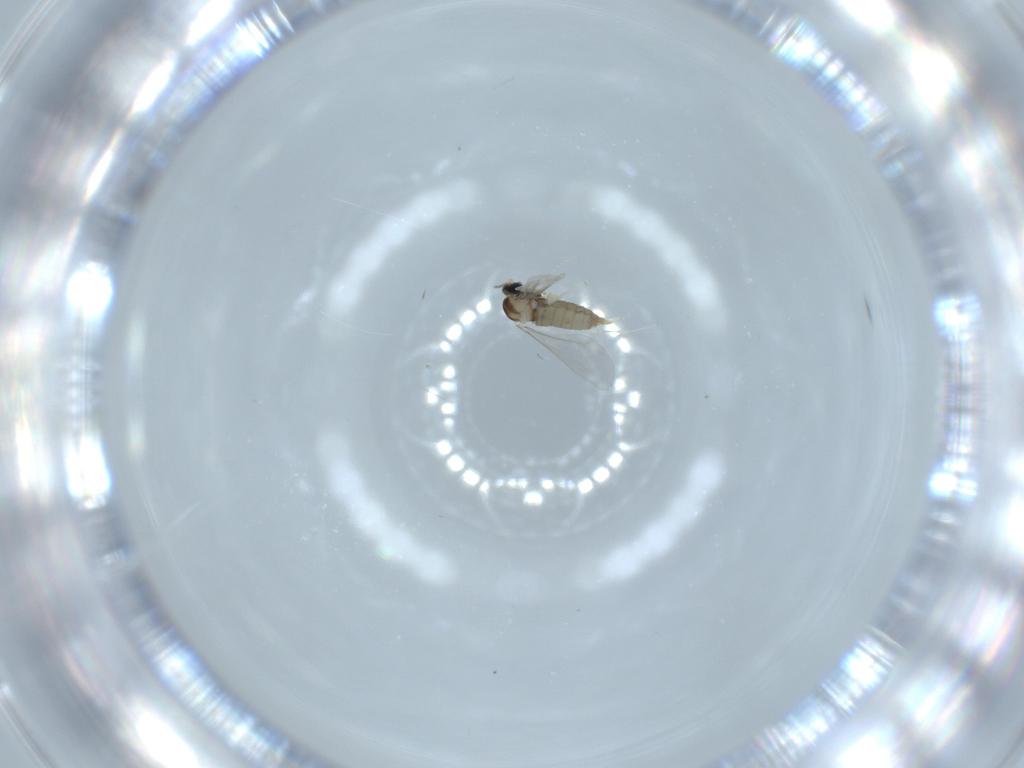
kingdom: Animalia
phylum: Arthropoda
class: Insecta
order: Diptera
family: Cecidomyiidae
